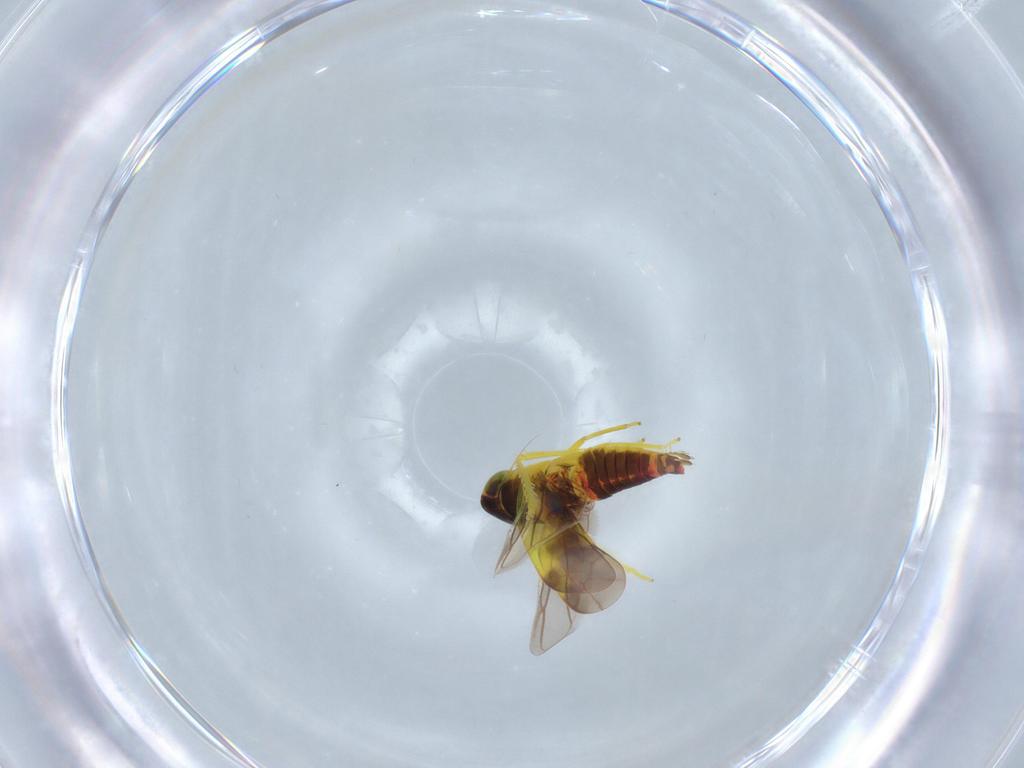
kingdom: Animalia
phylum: Arthropoda
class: Insecta
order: Hemiptera
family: Cicadellidae
